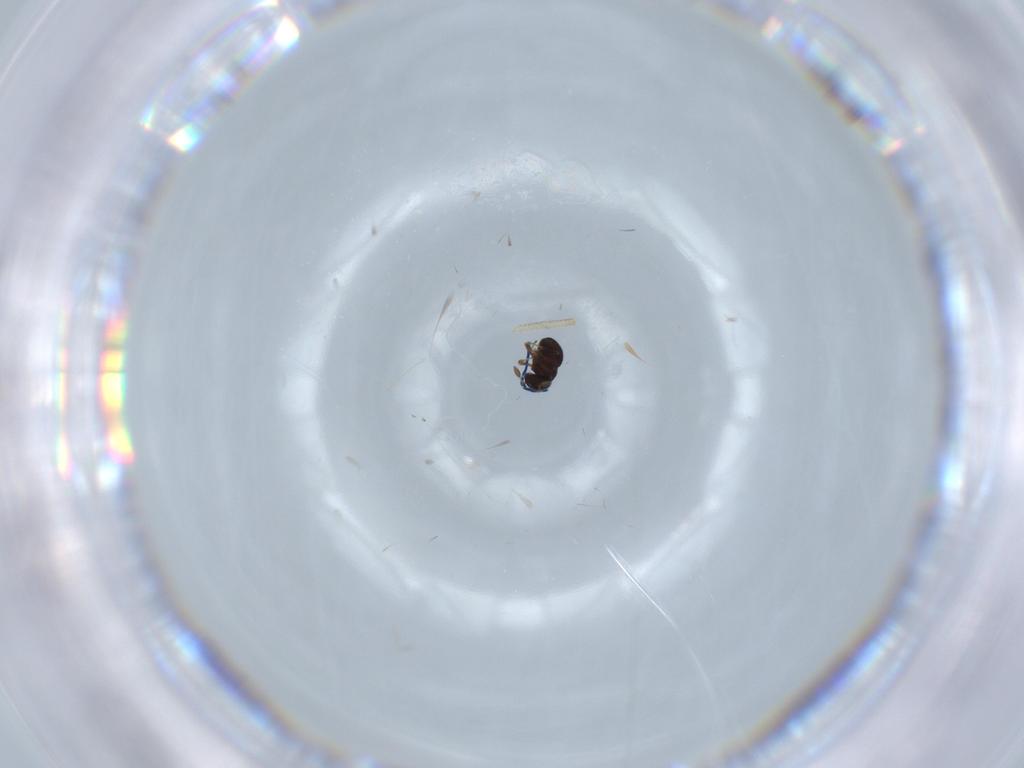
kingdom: Animalia
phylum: Arthropoda
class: Insecta
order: Hymenoptera
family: Scelionidae
